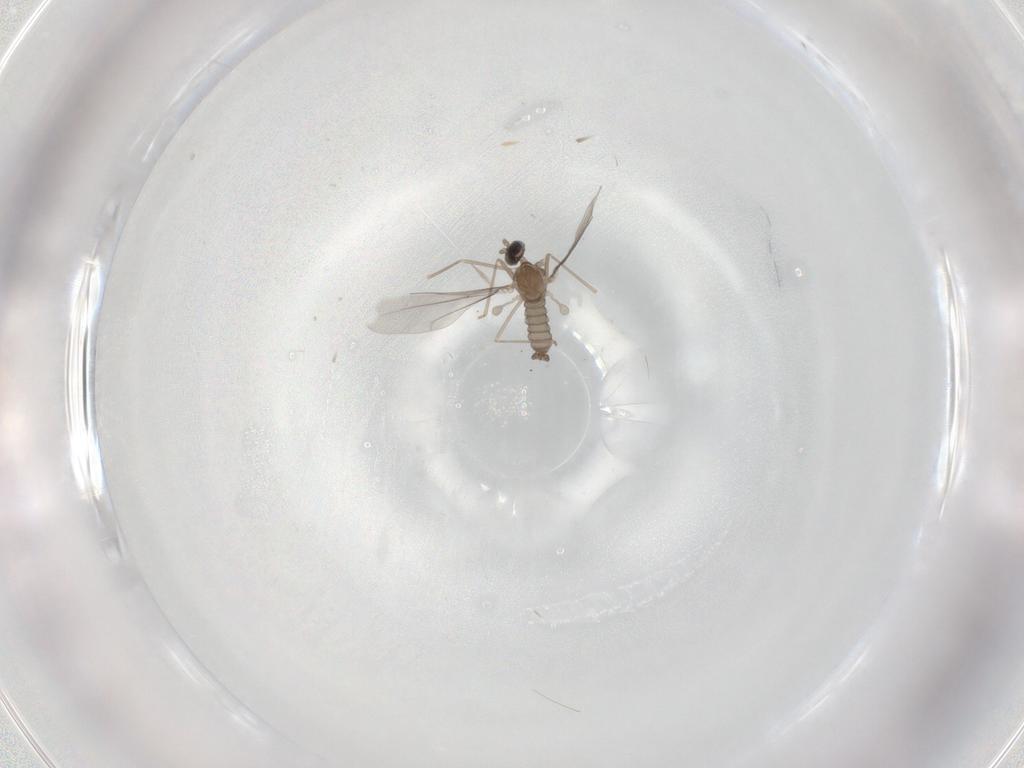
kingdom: Animalia
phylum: Arthropoda
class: Insecta
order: Diptera
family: Cecidomyiidae
